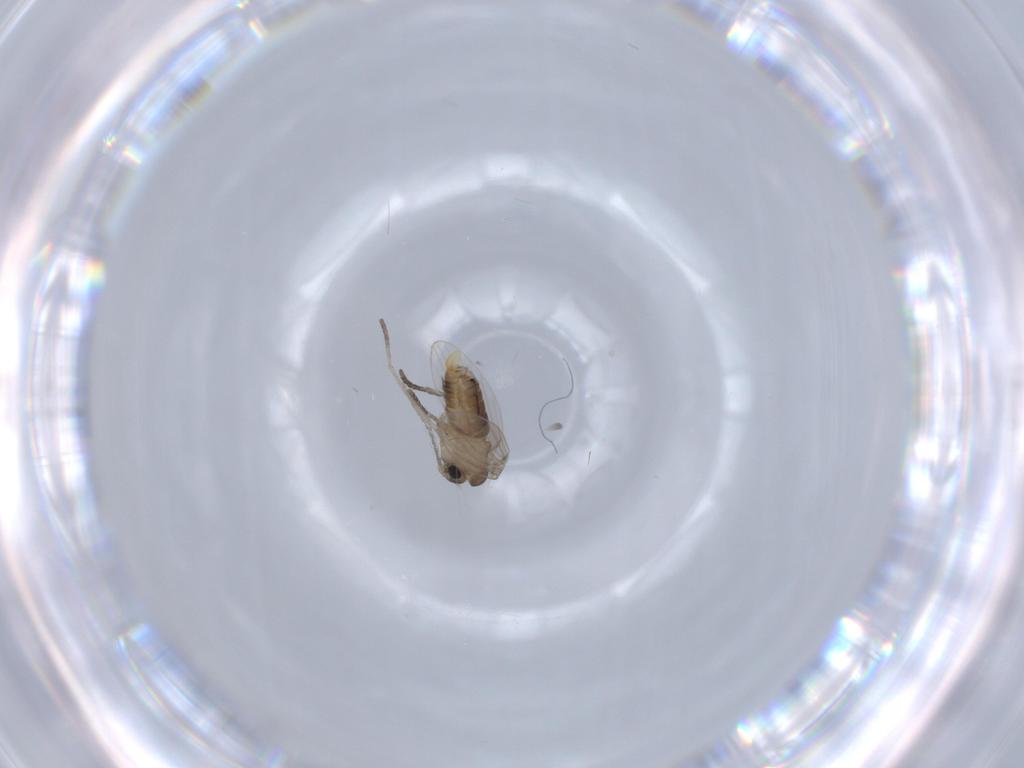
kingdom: Animalia
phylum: Arthropoda
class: Insecta
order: Diptera
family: Psychodidae
